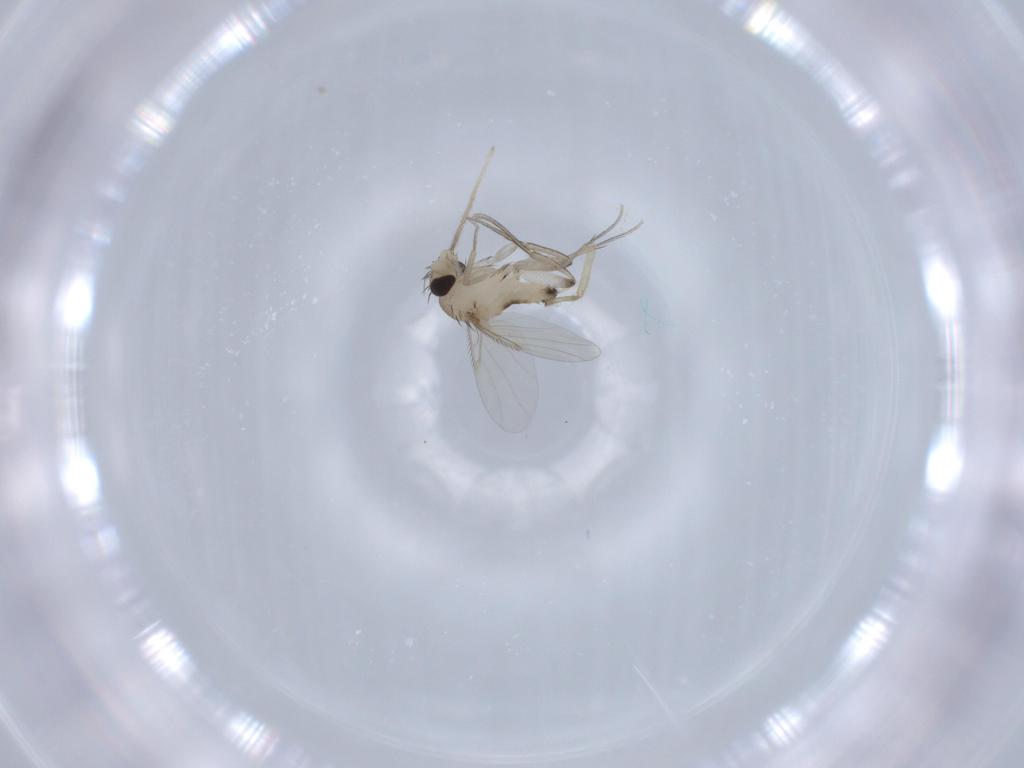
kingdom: Animalia
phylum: Arthropoda
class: Insecta
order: Diptera
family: Phoridae
